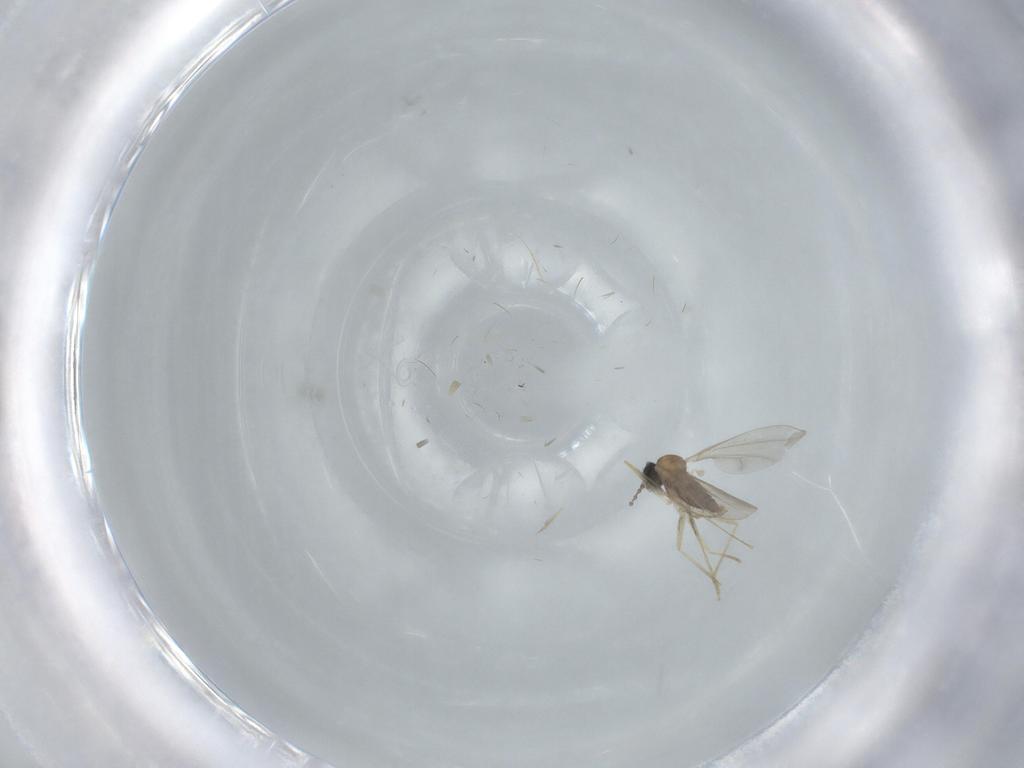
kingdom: Animalia
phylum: Arthropoda
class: Insecta
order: Diptera
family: Cecidomyiidae
